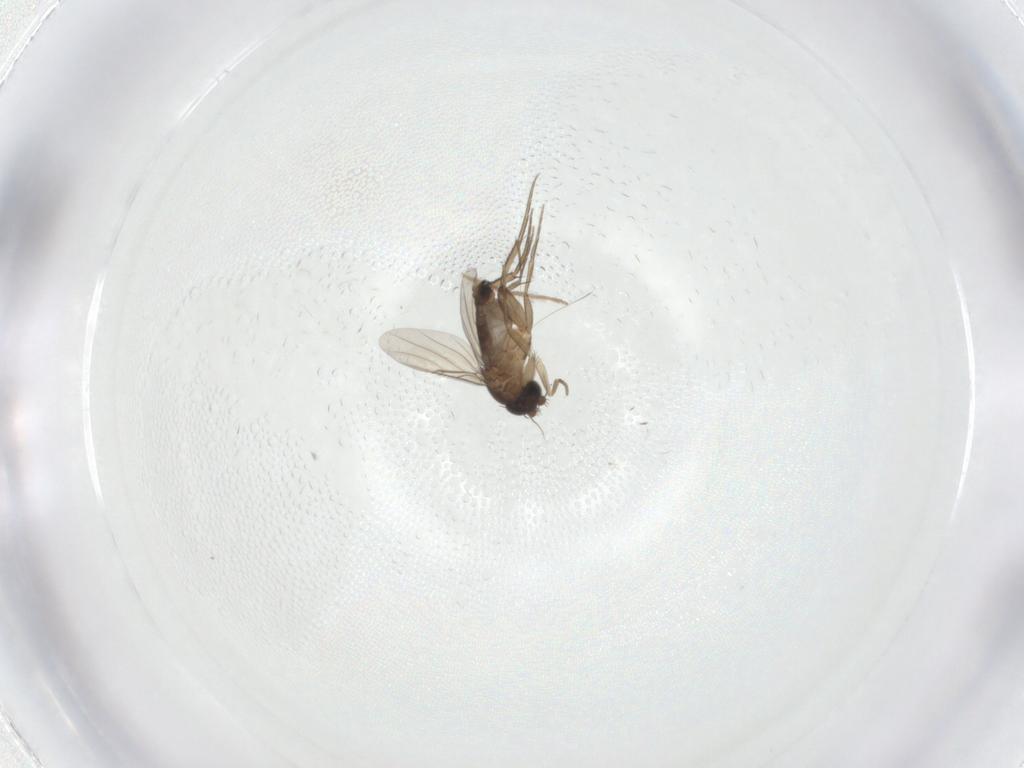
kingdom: Animalia
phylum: Arthropoda
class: Insecta
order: Diptera
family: Phoridae
